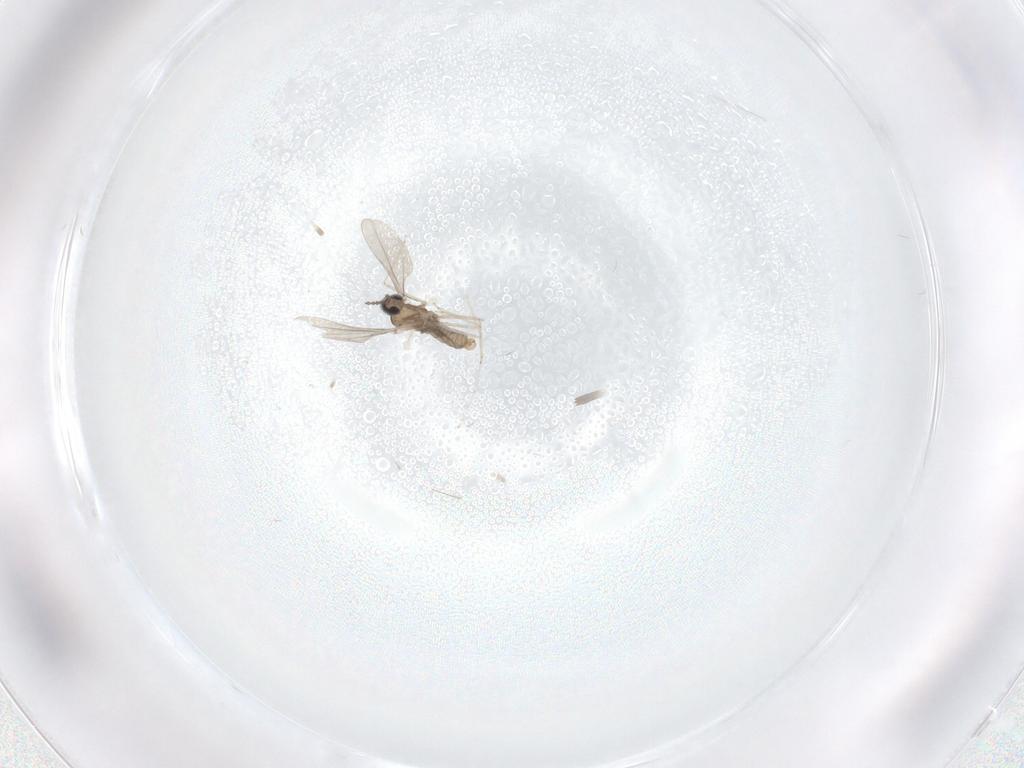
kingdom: Animalia
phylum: Arthropoda
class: Insecta
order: Diptera
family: Cecidomyiidae
